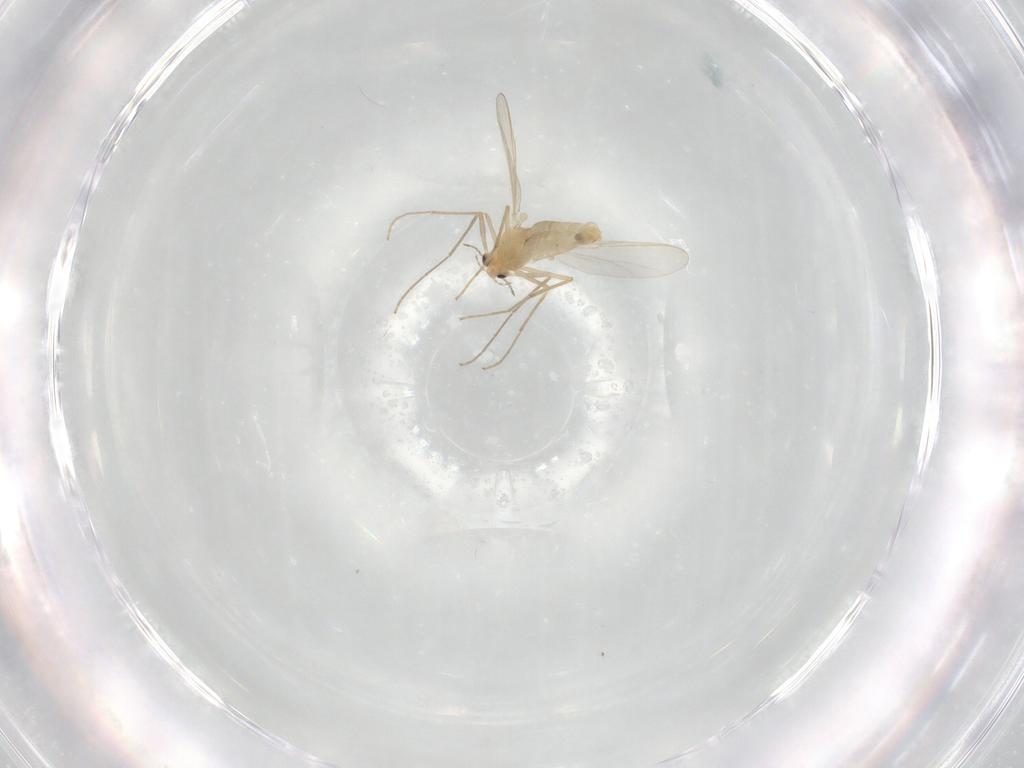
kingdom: Animalia
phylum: Arthropoda
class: Insecta
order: Diptera
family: Chironomidae
